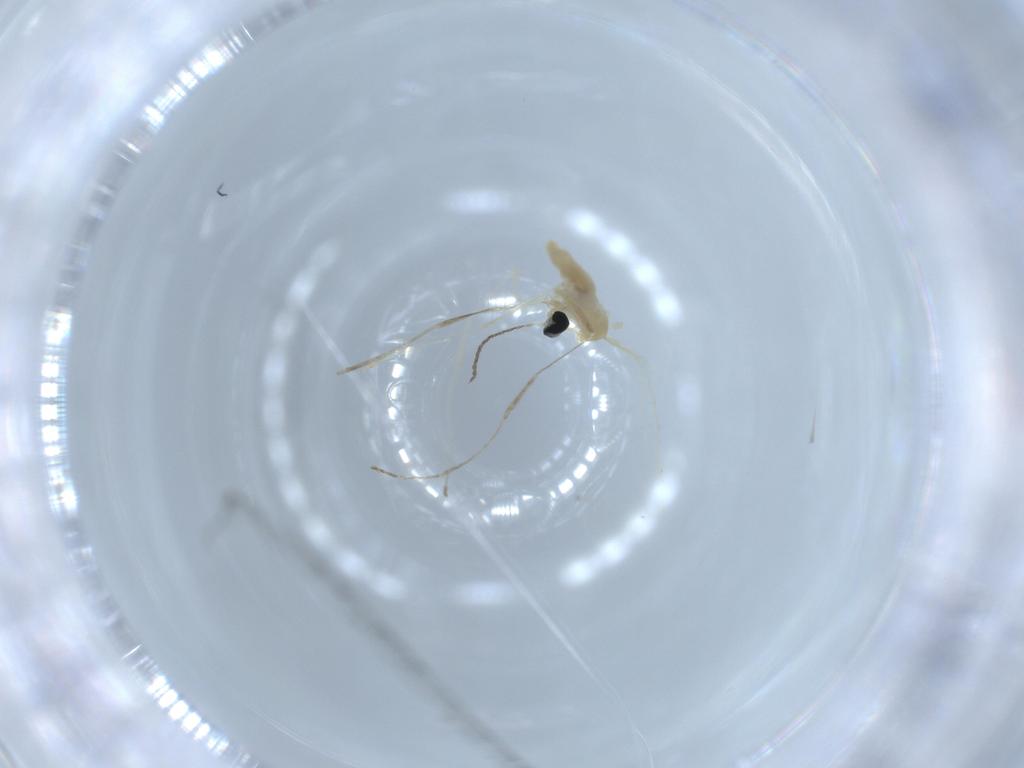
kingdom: Animalia
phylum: Arthropoda
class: Insecta
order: Diptera
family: Cecidomyiidae
